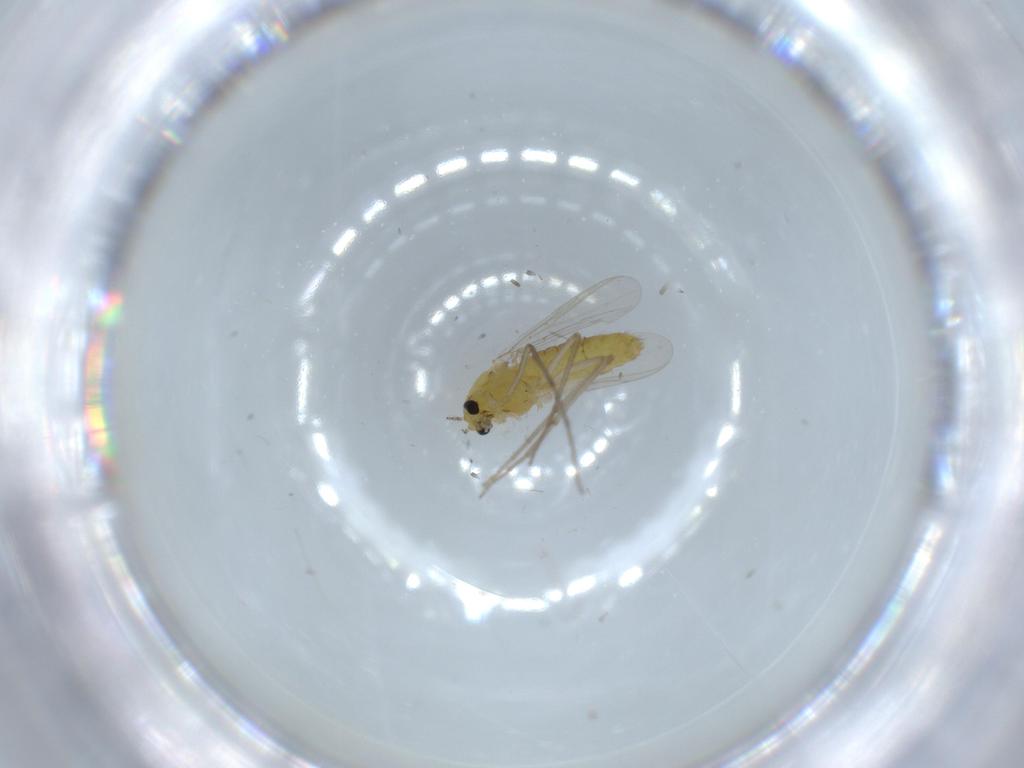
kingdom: Animalia
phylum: Arthropoda
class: Insecta
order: Diptera
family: Chironomidae
